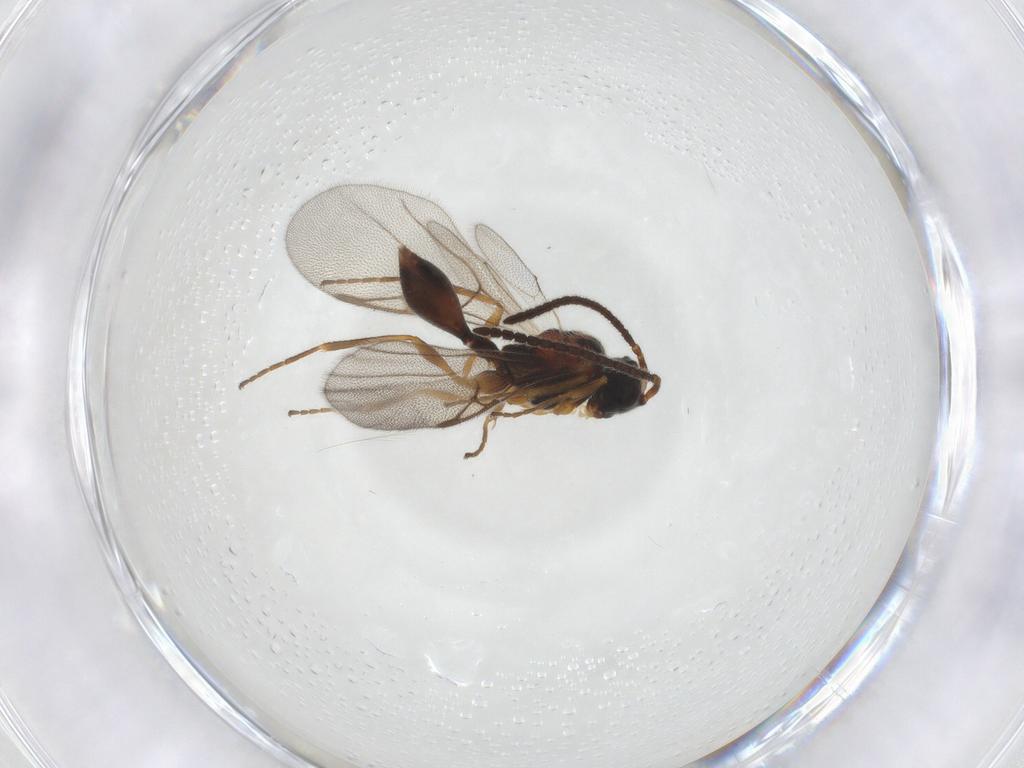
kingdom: Animalia
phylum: Arthropoda
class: Insecta
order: Hymenoptera
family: Diapriidae
